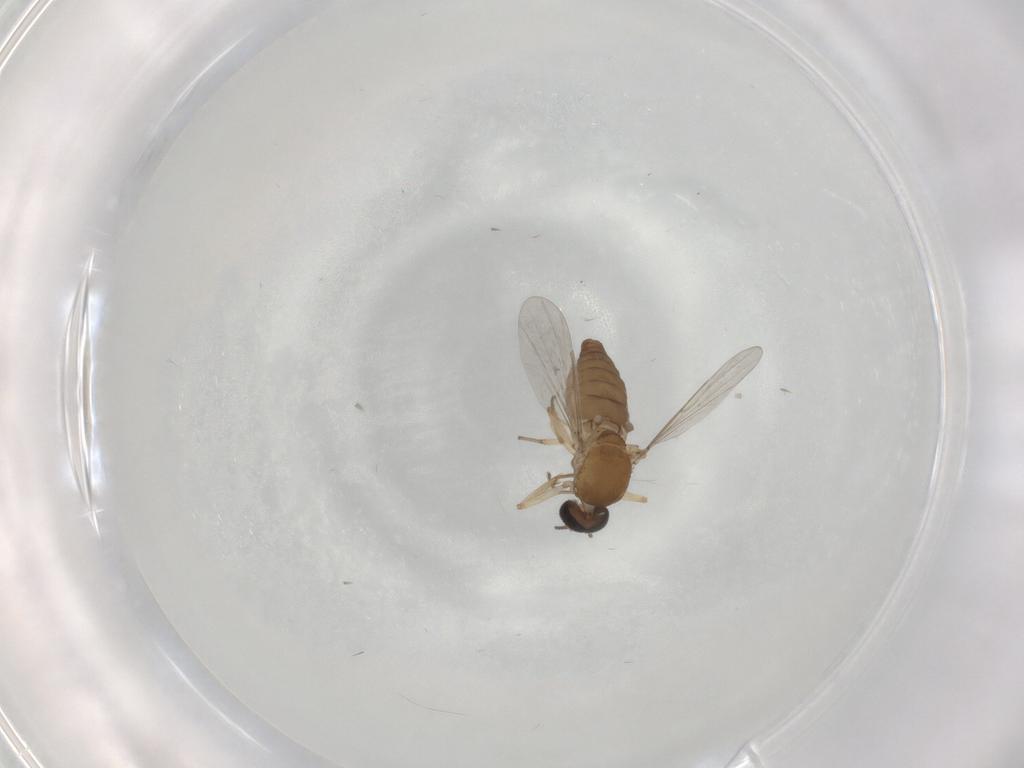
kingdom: Animalia
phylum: Arthropoda
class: Insecta
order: Diptera
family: Ceratopogonidae
